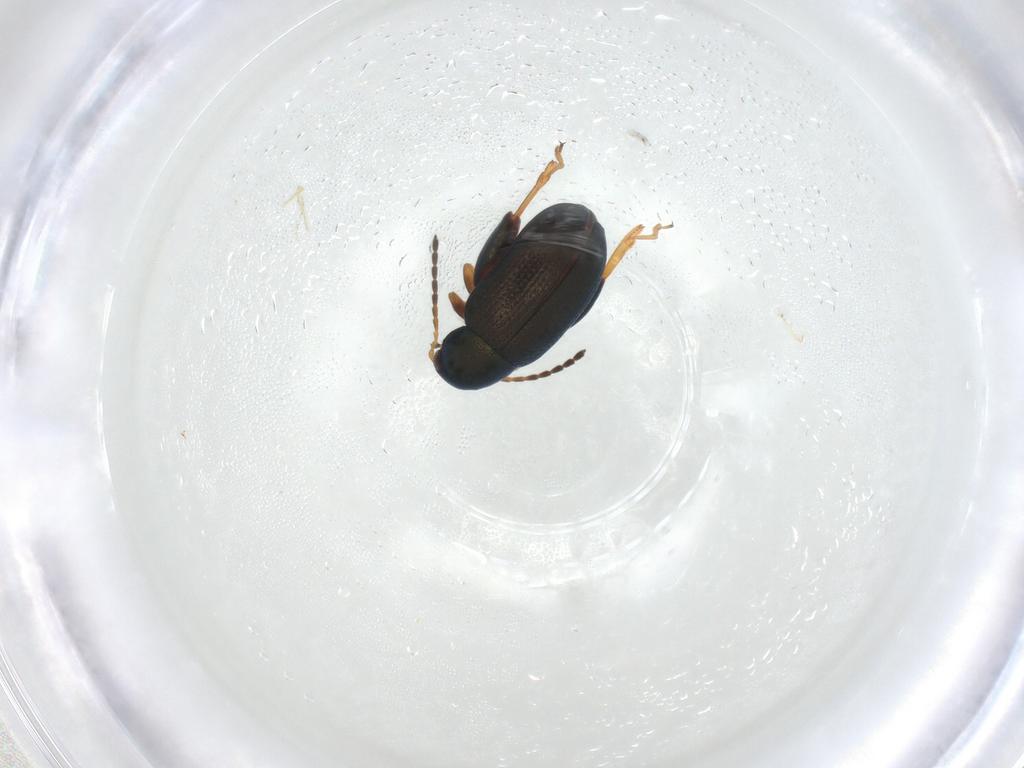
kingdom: Animalia
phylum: Arthropoda
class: Insecta
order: Coleoptera
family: Chrysomelidae
